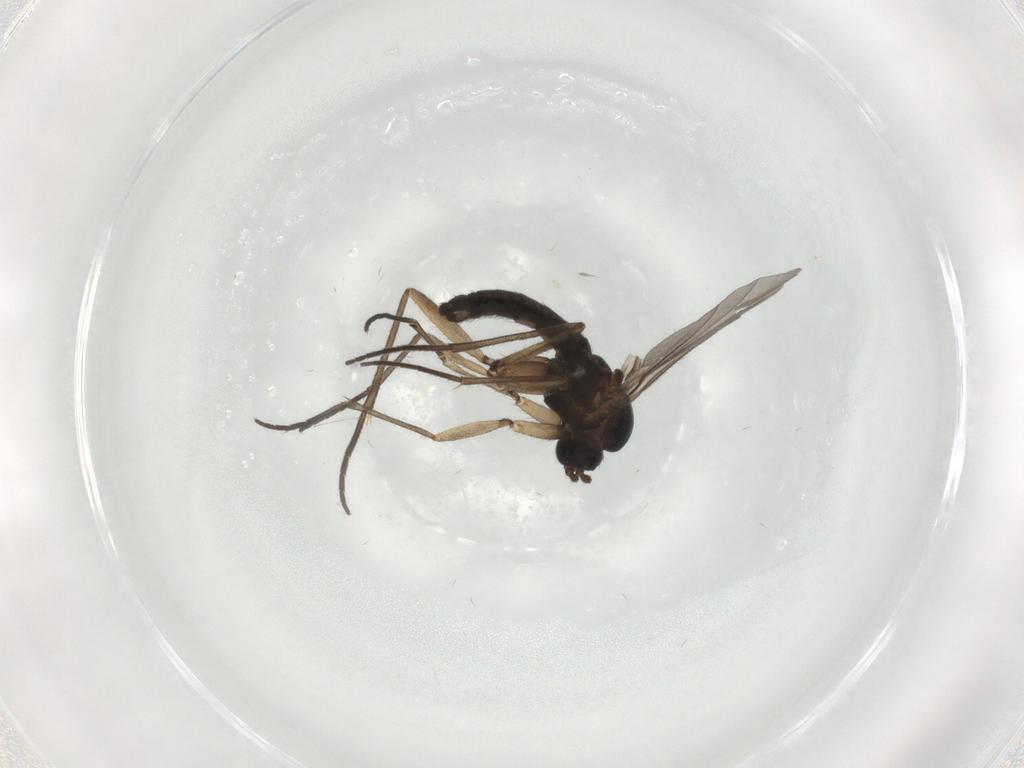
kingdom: Animalia
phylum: Arthropoda
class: Insecta
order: Diptera
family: Sciaridae
